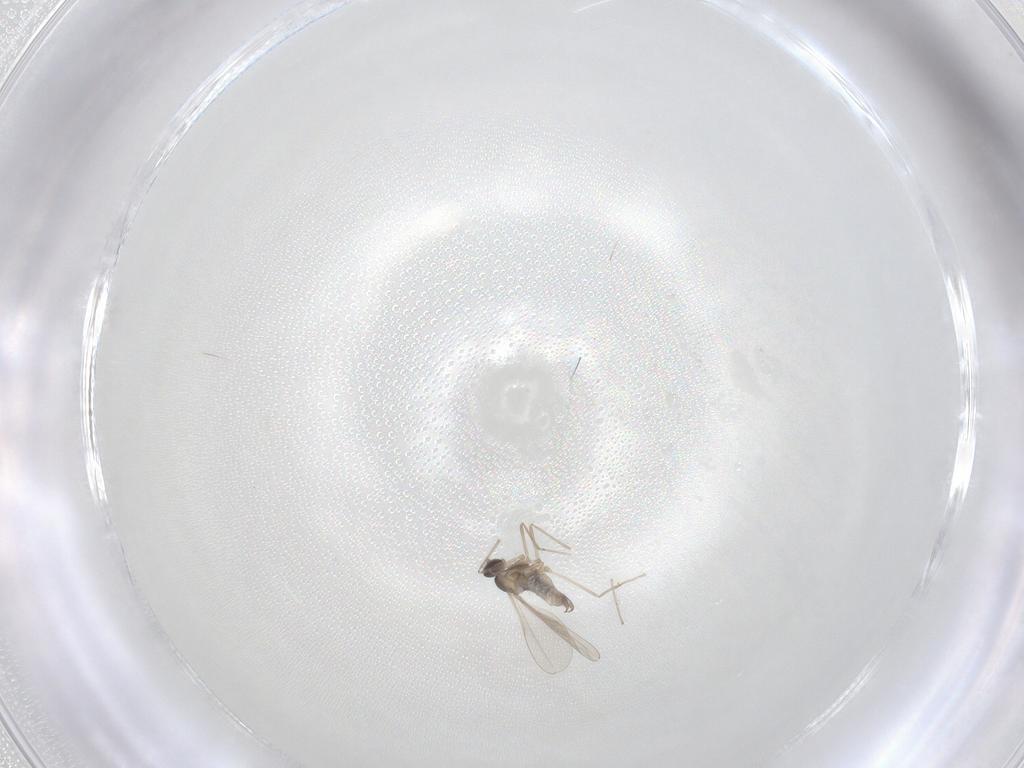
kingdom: Animalia
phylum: Arthropoda
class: Insecta
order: Diptera
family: Cecidomyiidae
